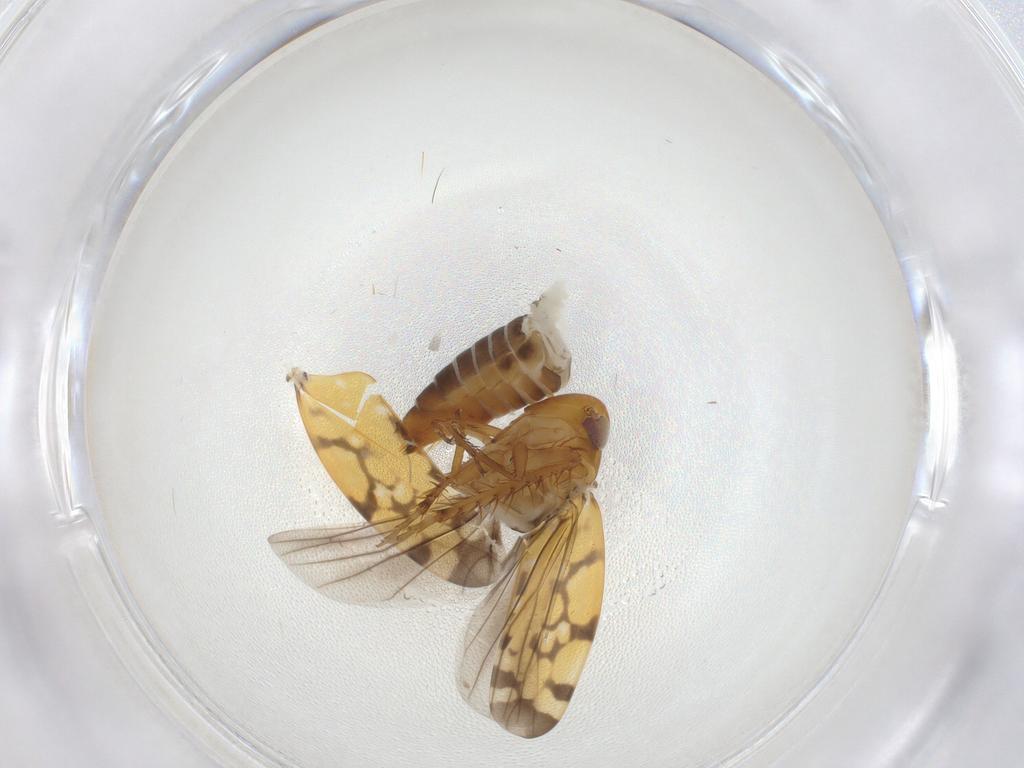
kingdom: Animalia
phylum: Arthropoda
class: Insecta
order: Hemiptera
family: Cicadellidae
